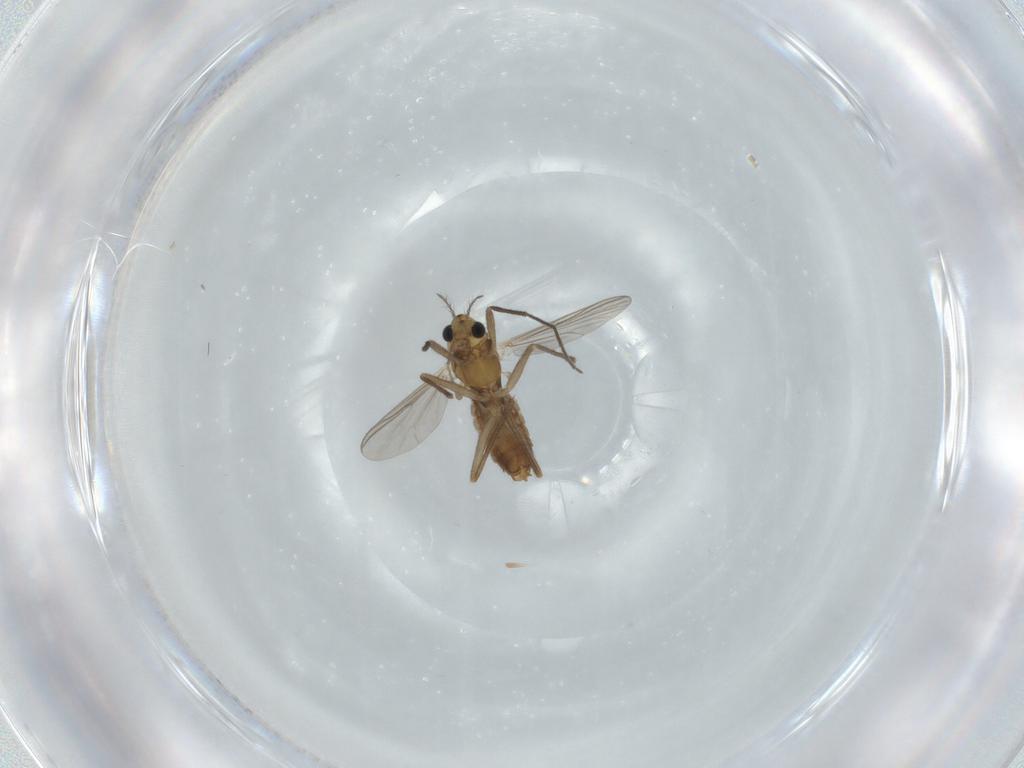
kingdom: Animalia
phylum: Arthropoda
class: Insecta
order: Diptera
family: Chironomidae
